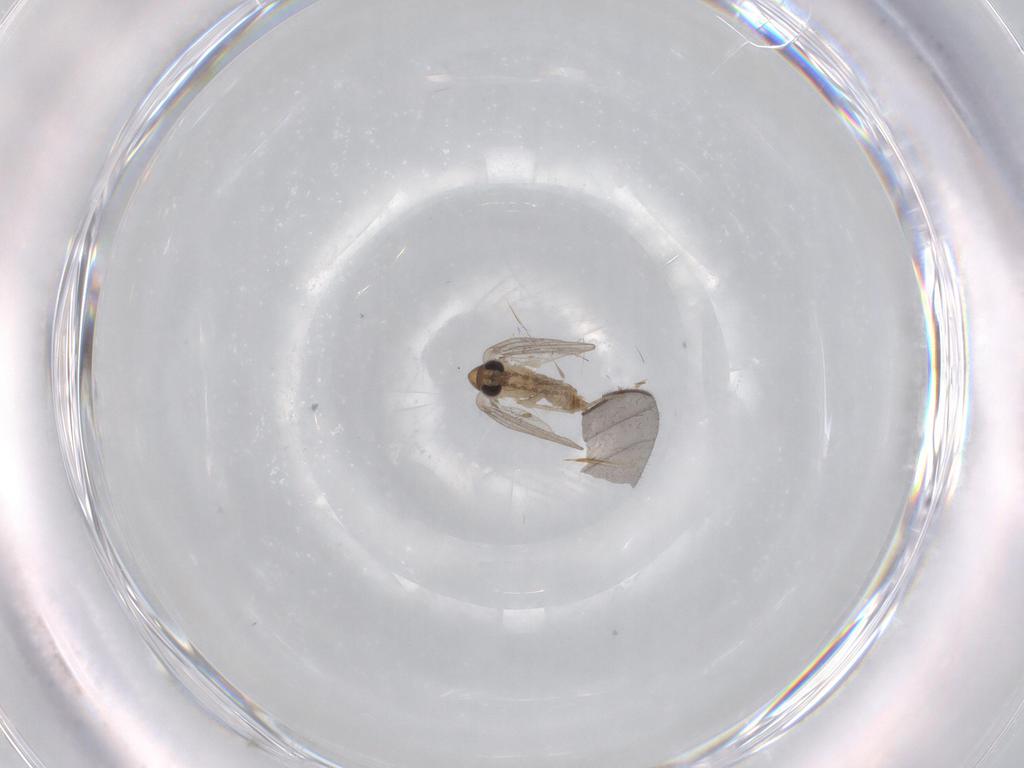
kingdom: Animalia
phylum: Arthropoda
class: Insecta
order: Diptera
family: Psychodidae
